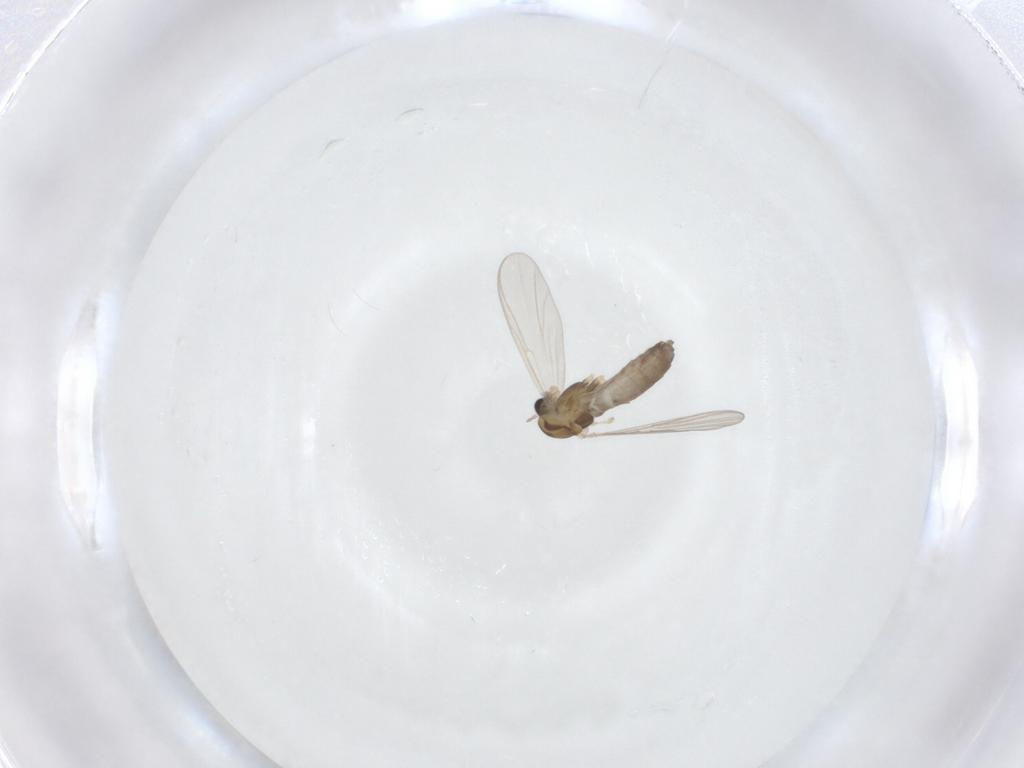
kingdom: Animalia
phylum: Arthropoda
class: Insecta
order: Diptera
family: Chironomidae
